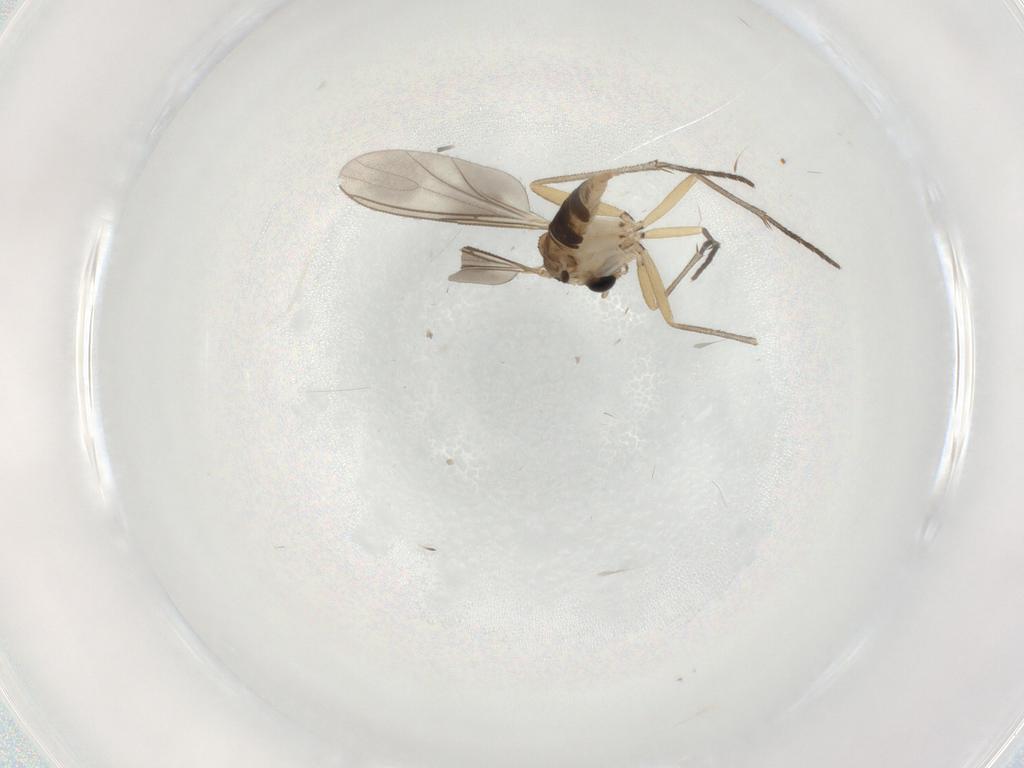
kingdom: Animalia
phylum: Arthropoda
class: Insecta
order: Diptera
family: Sciaridae
